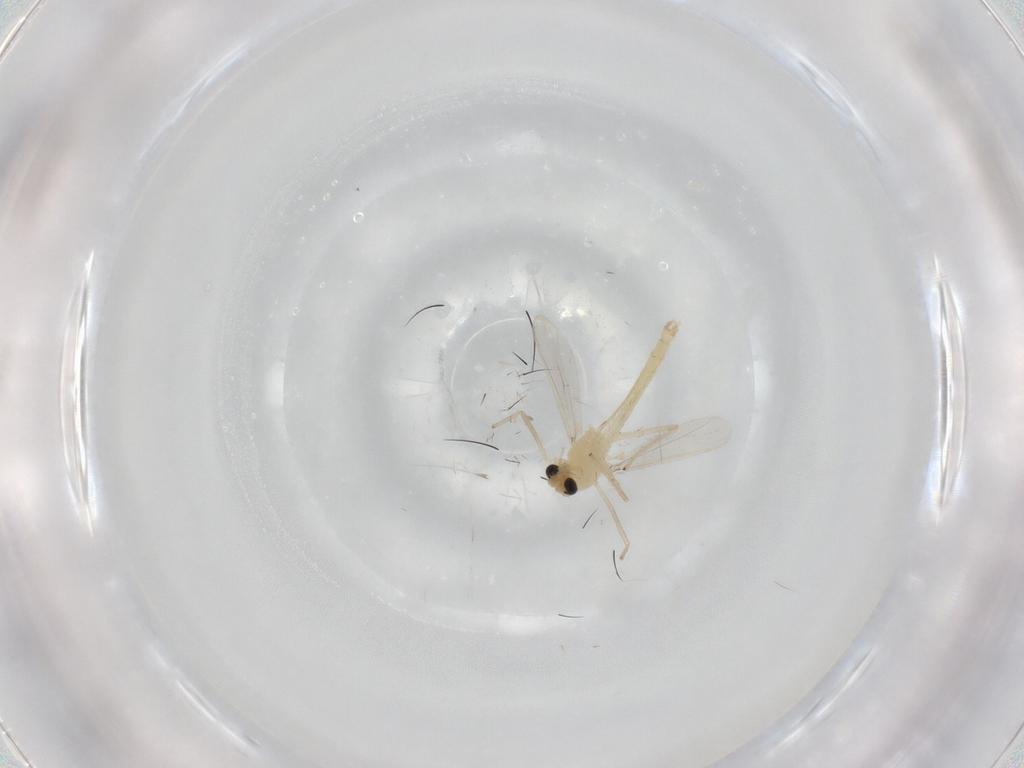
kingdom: Animalia
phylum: Arthropoda
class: Insecta
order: Diptera
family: Chironomidae
